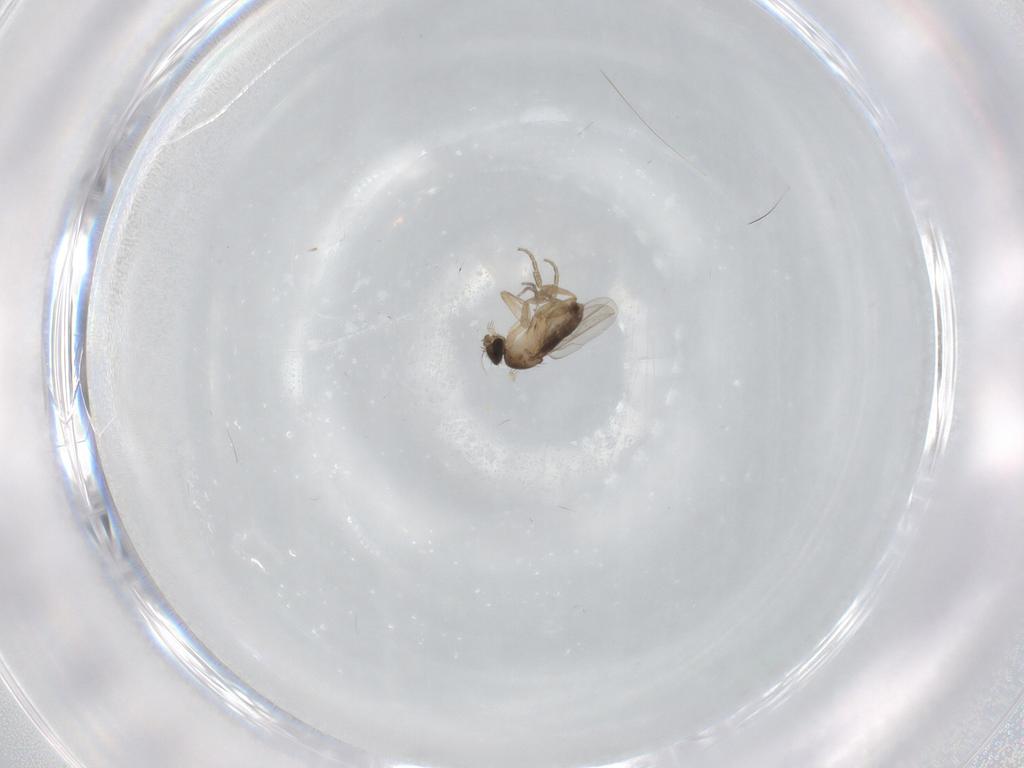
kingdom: Animalia
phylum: Arthropoda
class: Insecta
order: Diptera
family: Phoridae
